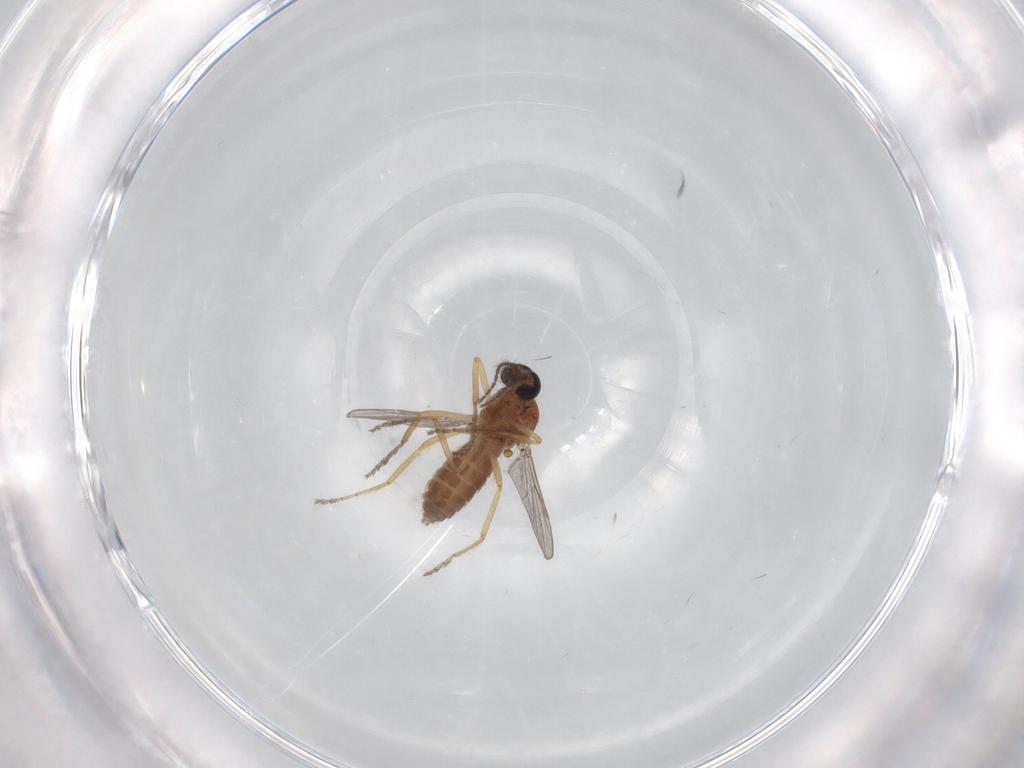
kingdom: Animalia
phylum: Arthropoda
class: Insecta
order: Diptera
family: Ceratopogonidae
